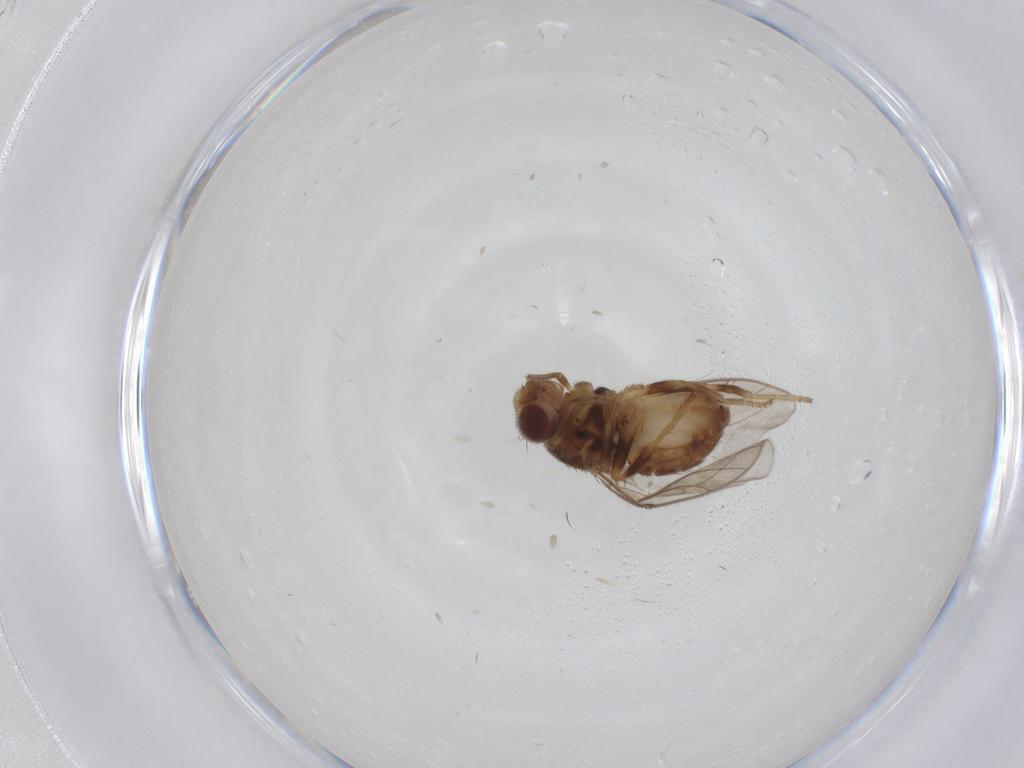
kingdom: Animalia
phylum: Arthropoda
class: Insecta
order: Diptera
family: Chloropidae
